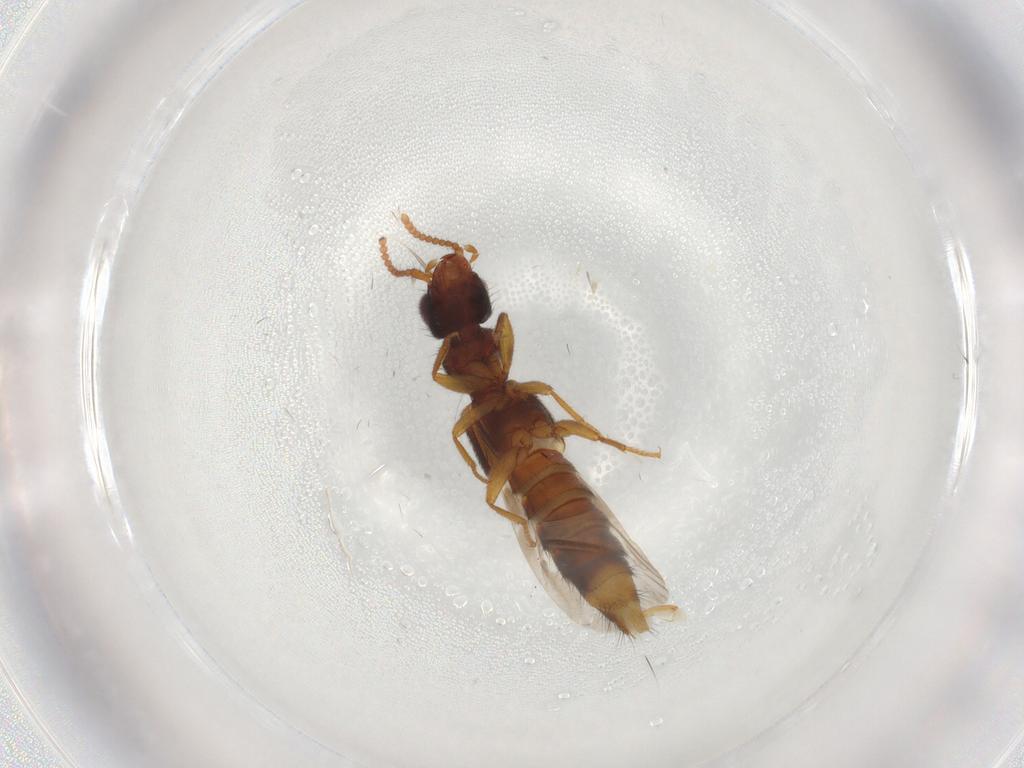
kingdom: Animalia
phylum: Arthropoda
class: Insecta
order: Coleoptera
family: Staphylinidae
